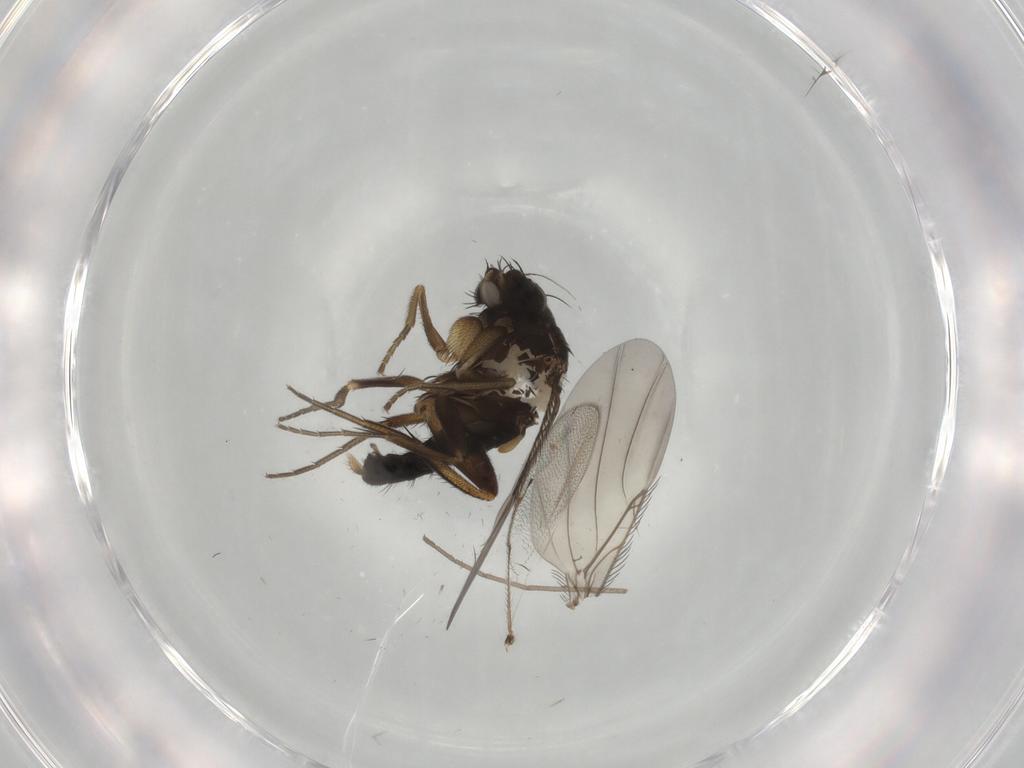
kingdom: Animalia
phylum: Arthropoda
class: Insecta
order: Diptera
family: Phoridae
